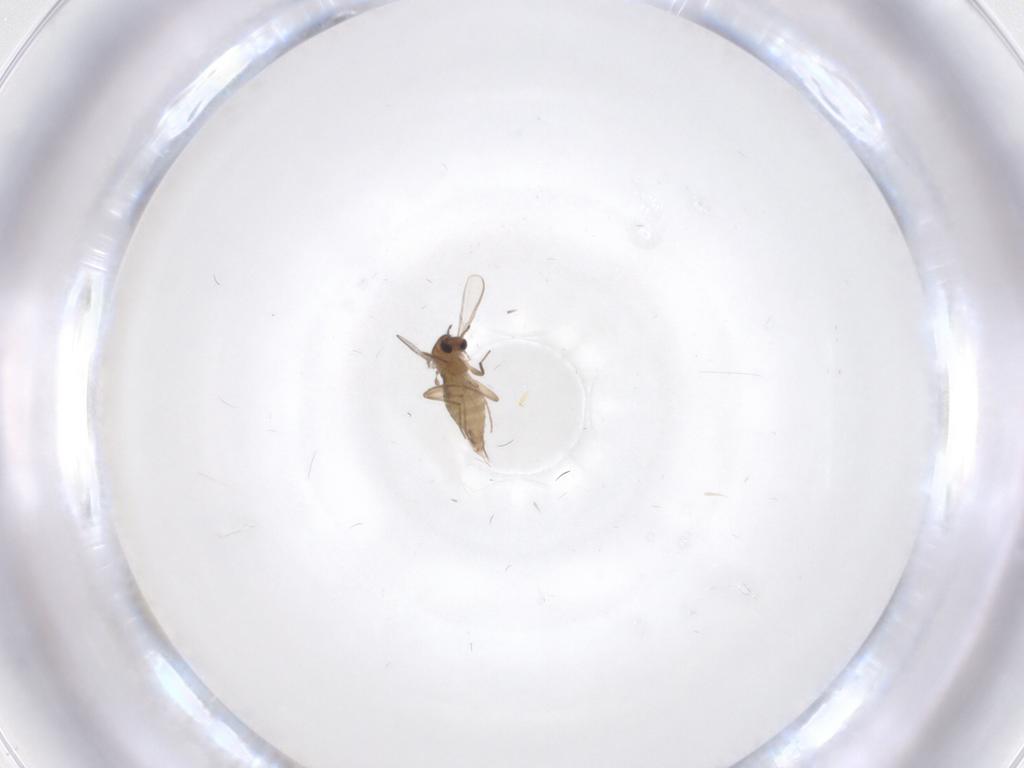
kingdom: Animalia
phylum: Arthropoda
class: Insecta
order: Diptera
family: Chironomidae
